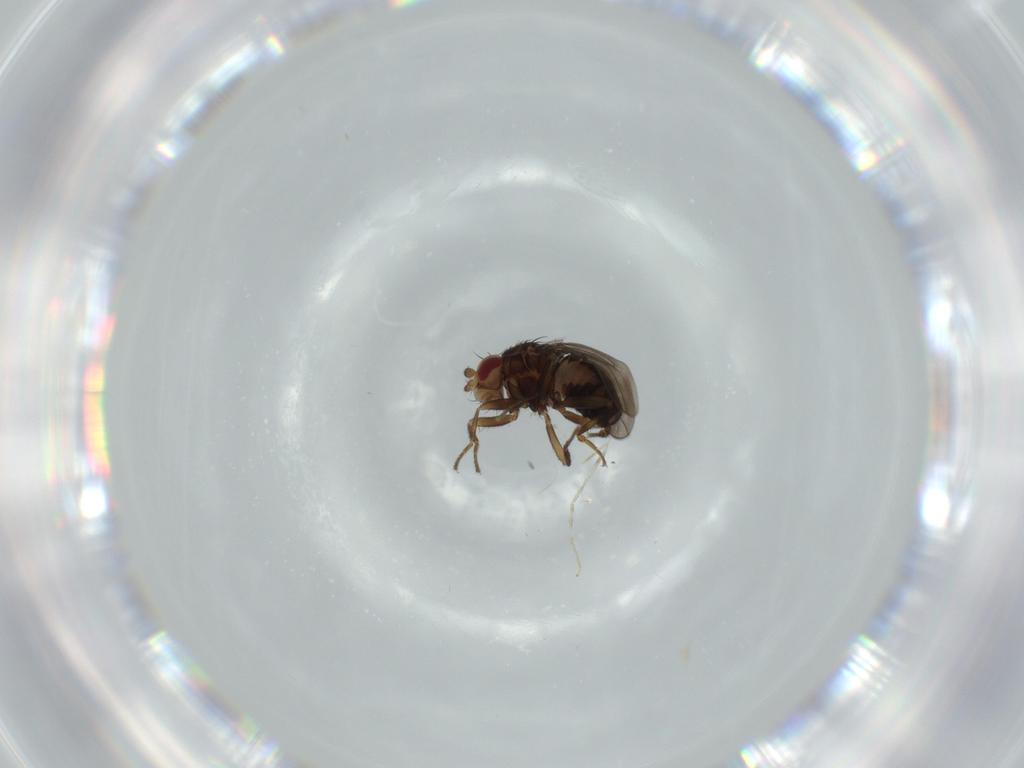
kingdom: Animalia
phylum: Arthropoda
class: Insecta
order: Diptera
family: Sphaeroceridae
